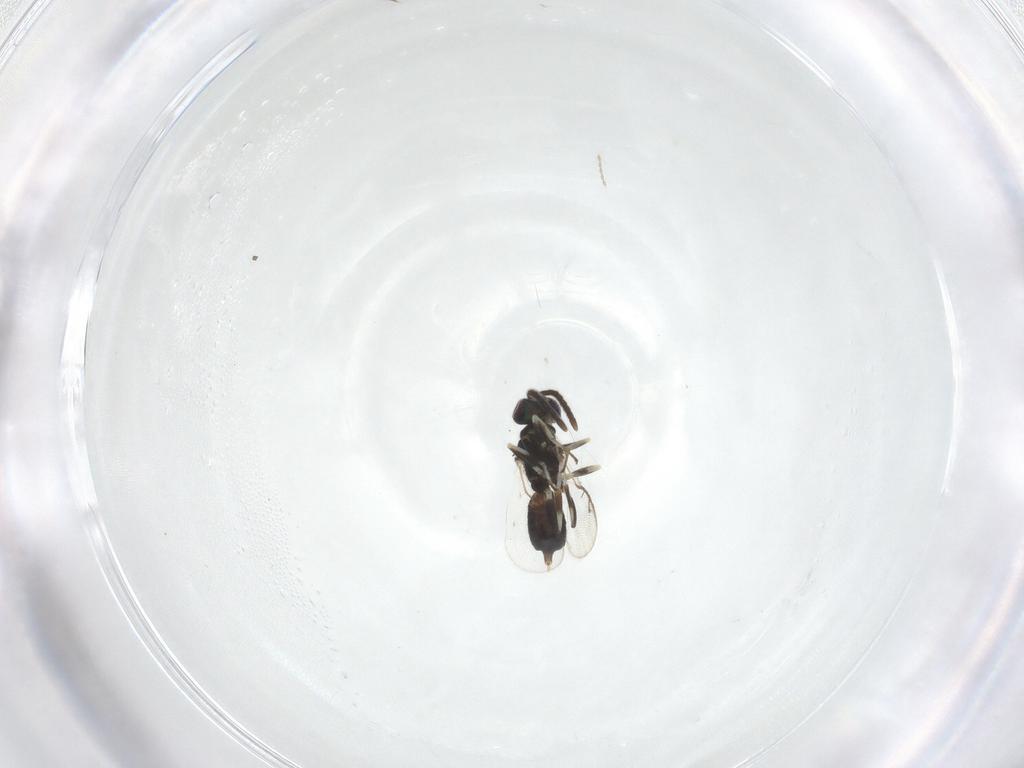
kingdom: Animalia
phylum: Arthropoda
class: Insecta
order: Hymenoptera
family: Eupelmidae
